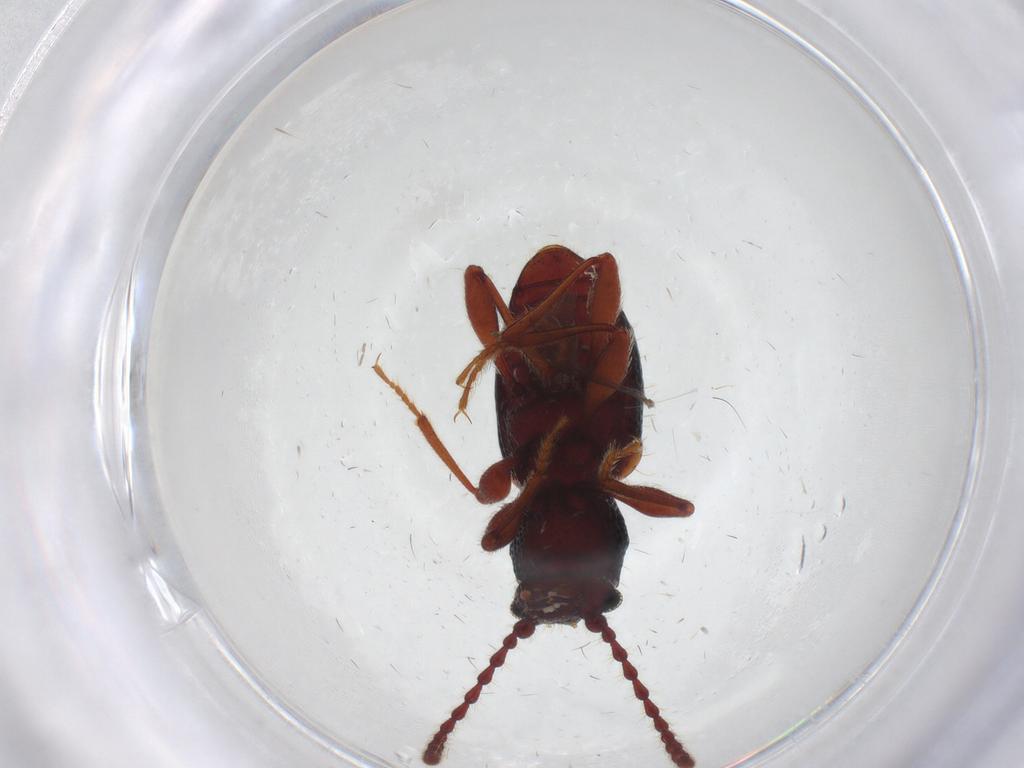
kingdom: Animalia
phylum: Arthropoda
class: Insecta
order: Coleoptera
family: Ptinidae
